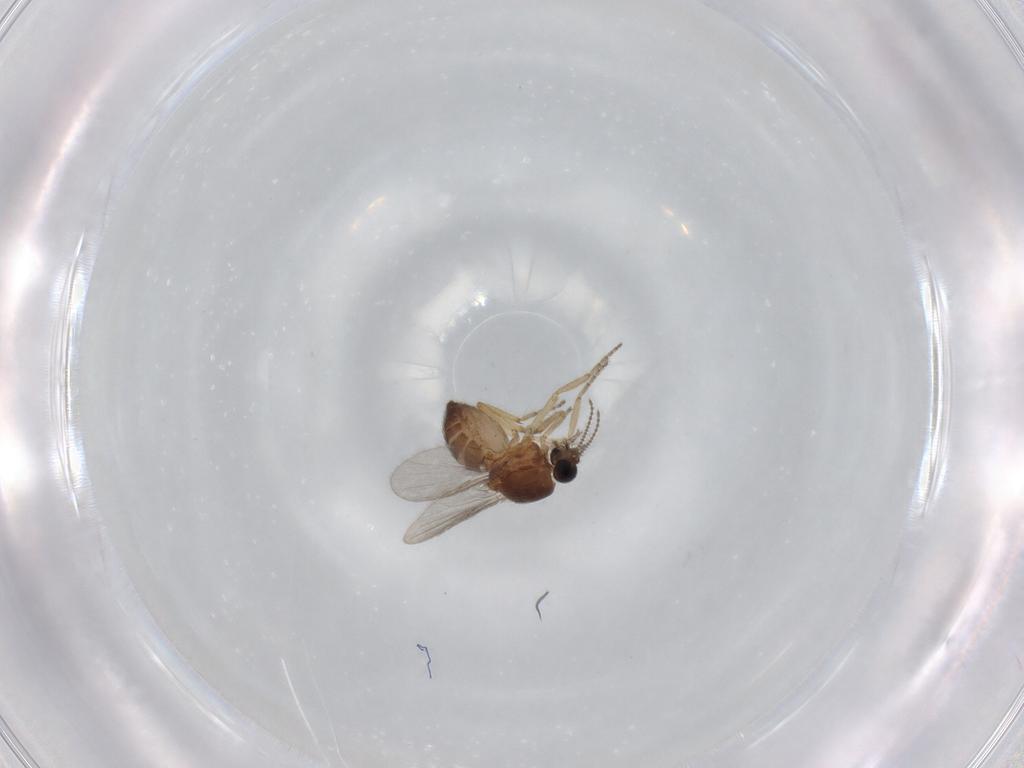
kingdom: Animalia
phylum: Arthropoda
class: Insecta
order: Diptera
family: Ceratopogonidae
